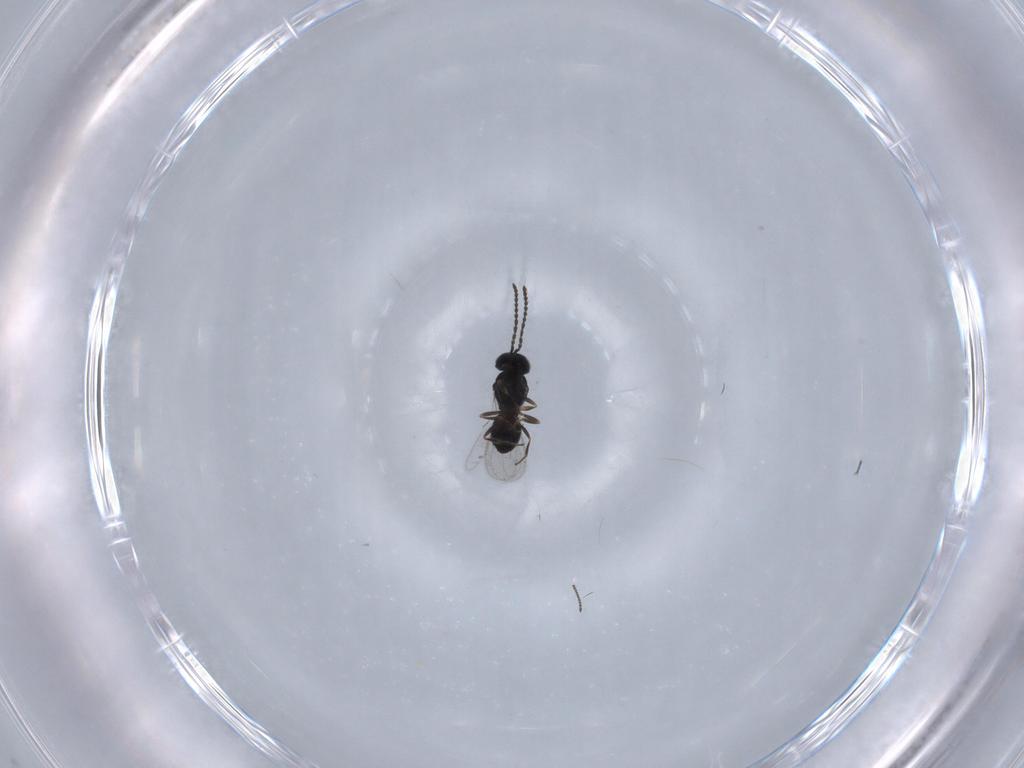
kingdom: Animalia
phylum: Arthropoda
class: Insecta
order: Hymenoptera
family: Scelionidae
